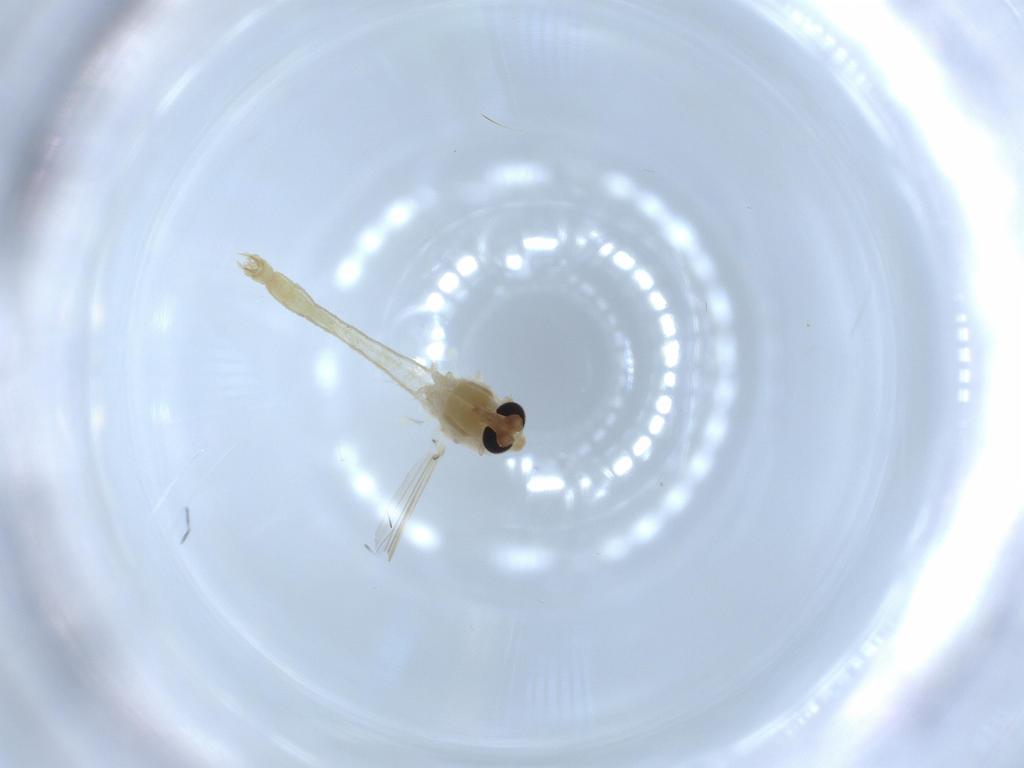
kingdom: Animalia
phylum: Arthropoda
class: Insecta
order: Diptera
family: Chironomidae
